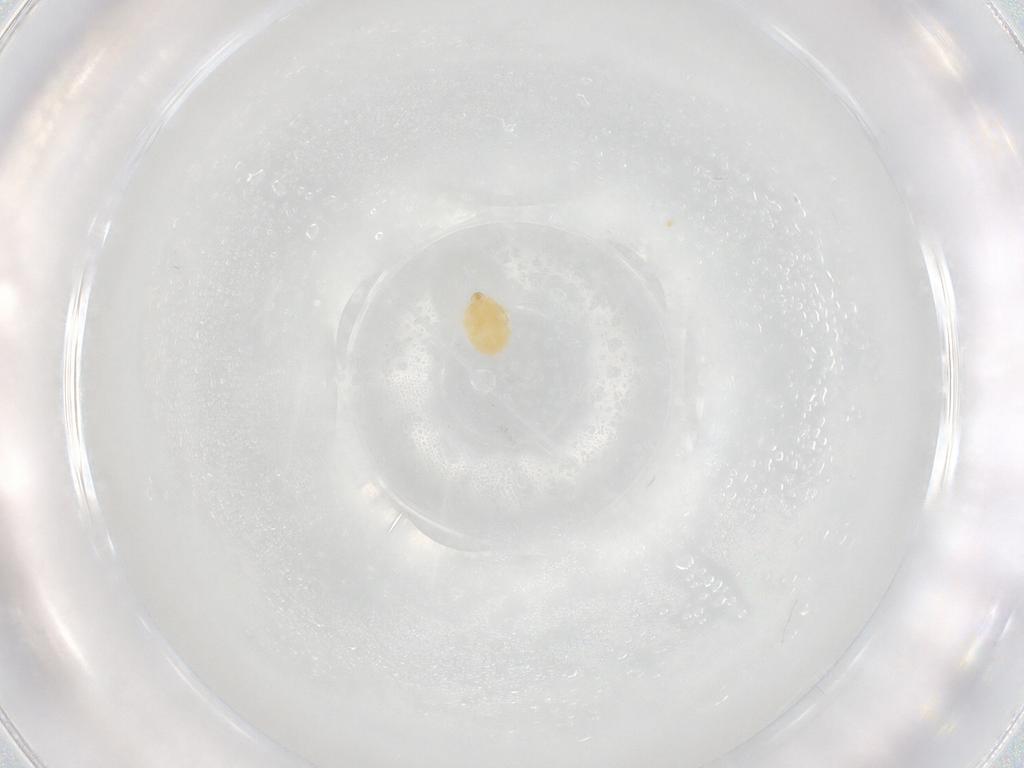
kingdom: Animalia
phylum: Arthropoda
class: Arachnida
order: Trombidiformes
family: Microtrombidiidae
